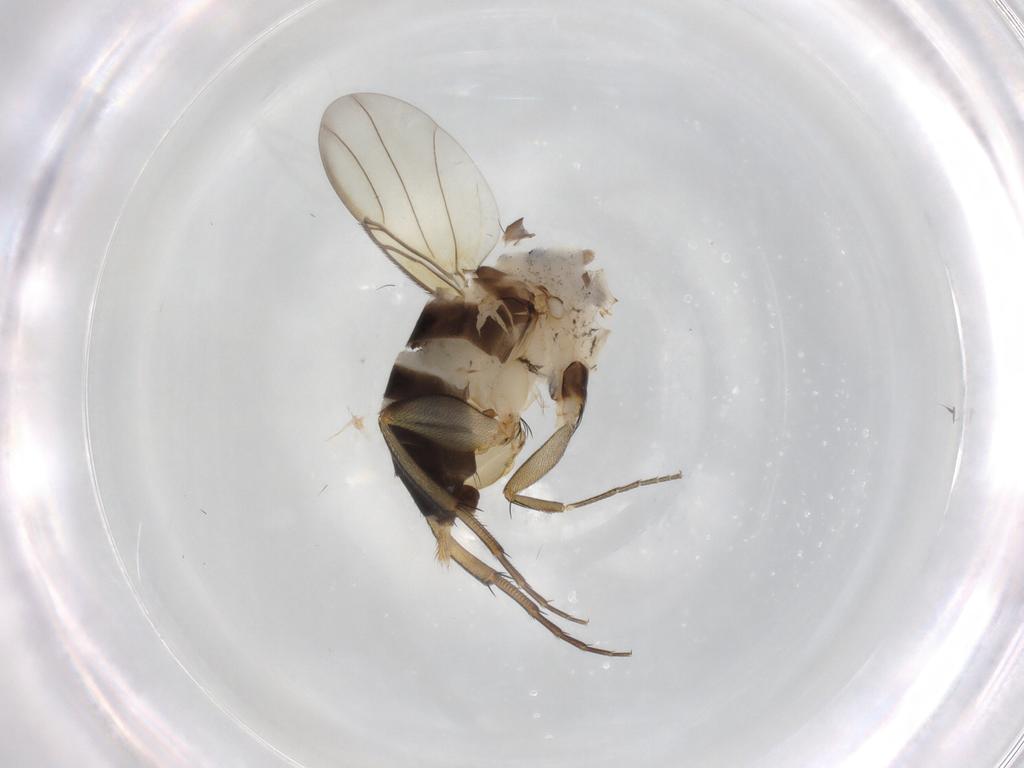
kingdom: Animalia
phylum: Arthropoda
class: Insecta
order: Diptera
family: Phoridae
